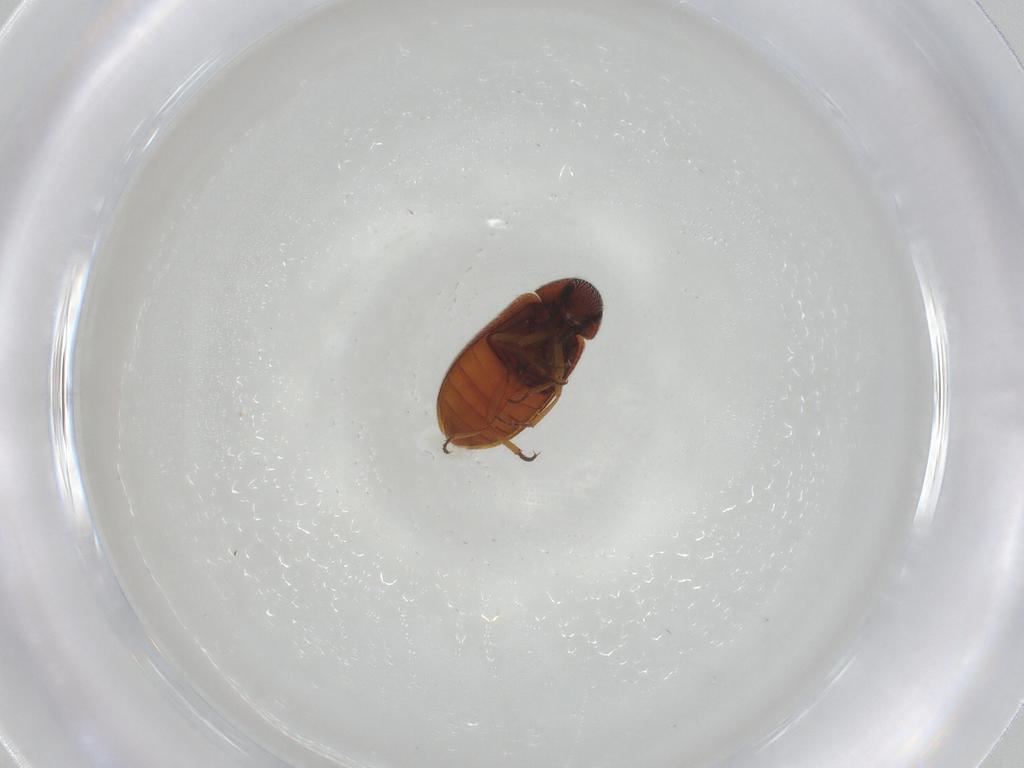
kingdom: Animalia
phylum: Arthropoda
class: Insecta
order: Coleoptera
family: Rhadalidae
